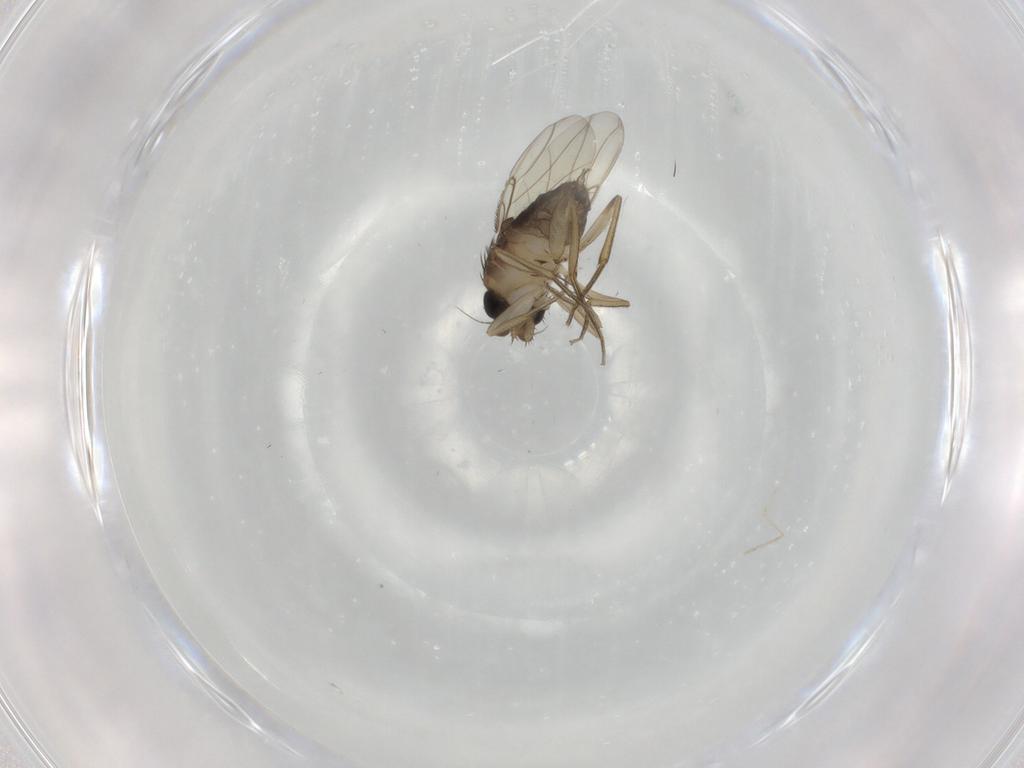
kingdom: Animalia
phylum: Arthropoda
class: Insecta
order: Diptera
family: Phoridae
